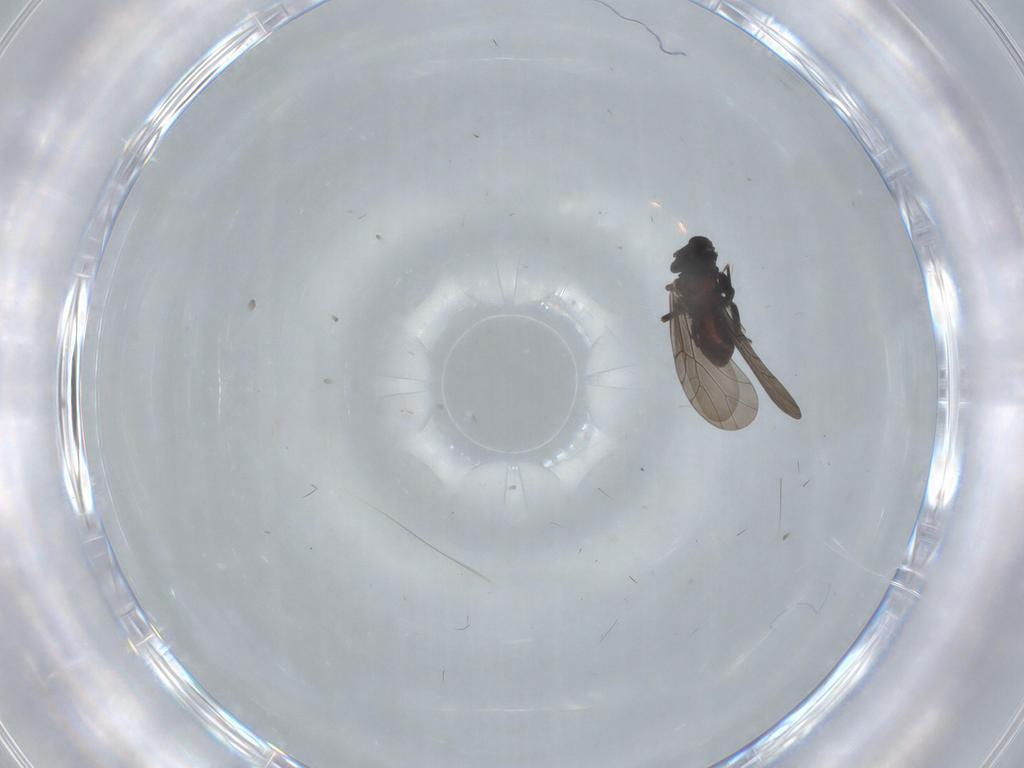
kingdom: Animalia
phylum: Arthropoda
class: Insecta
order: Psocodea
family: Lepidopsocidae
